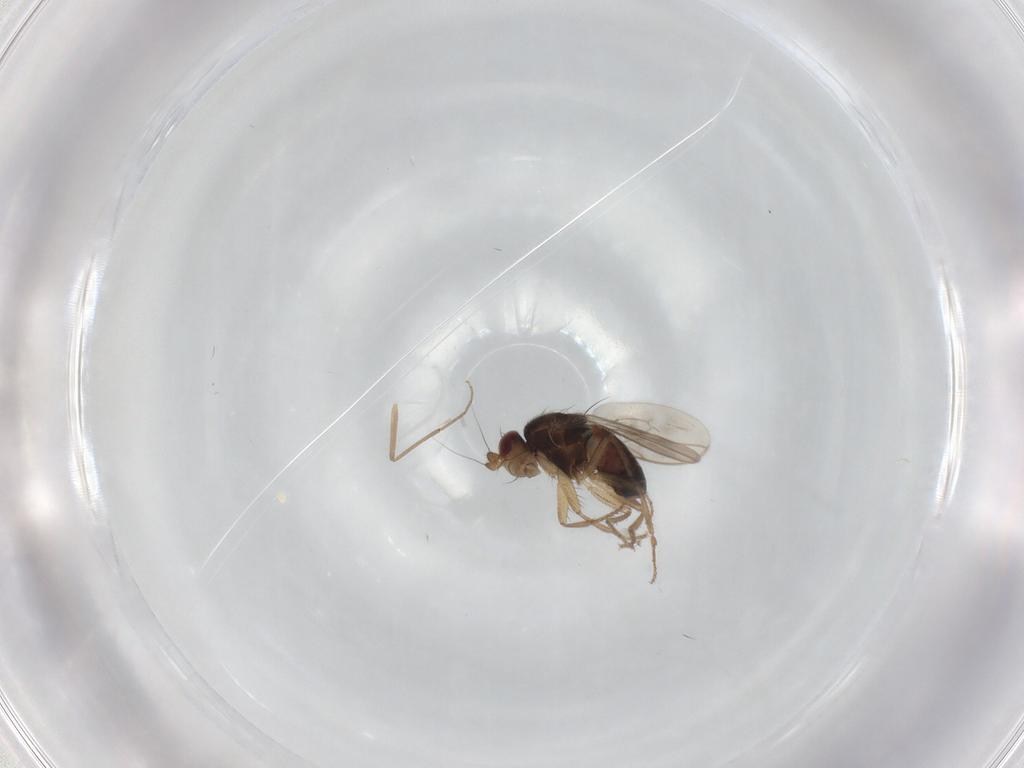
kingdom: Animalia
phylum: Arthropoda
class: Insecta
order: Diptera
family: Sphaeroceridae
